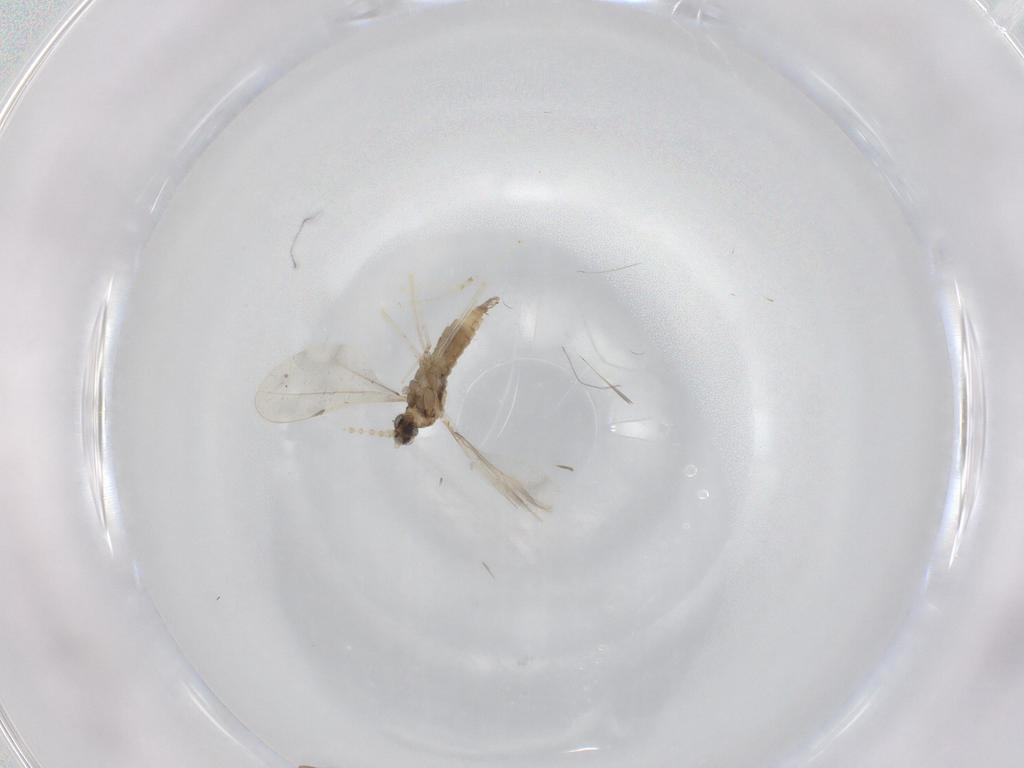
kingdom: Animalia
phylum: Arthropoda
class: Insecta
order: Diptera
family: Cecidomyiidae
